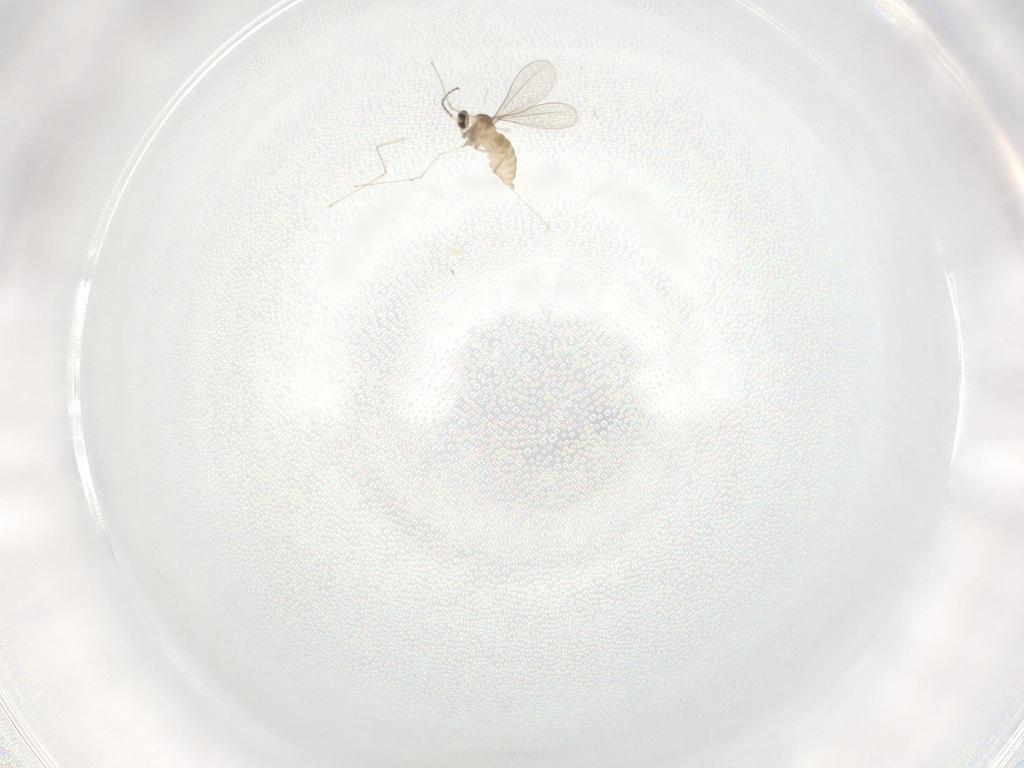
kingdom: Animalia
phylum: Arthropoda
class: Insecta
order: Diptera
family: Cecidomyiidae
